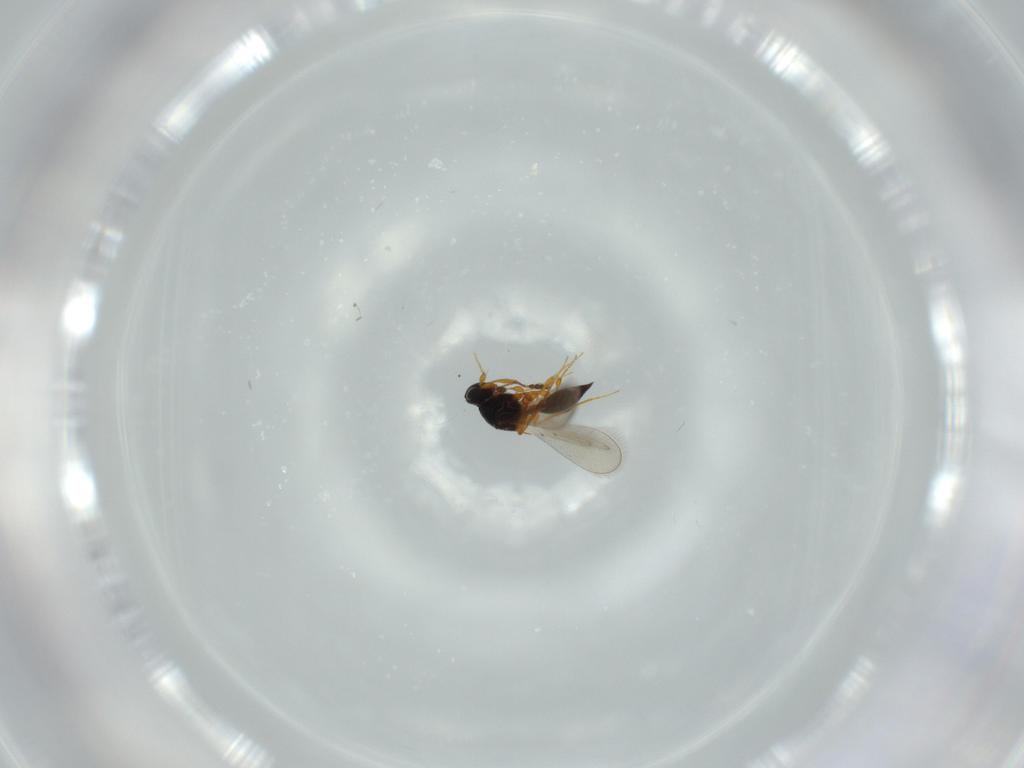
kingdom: Animalia
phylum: Arthropoda
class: Insecta
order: Hymenoptera
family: Platygastridae
